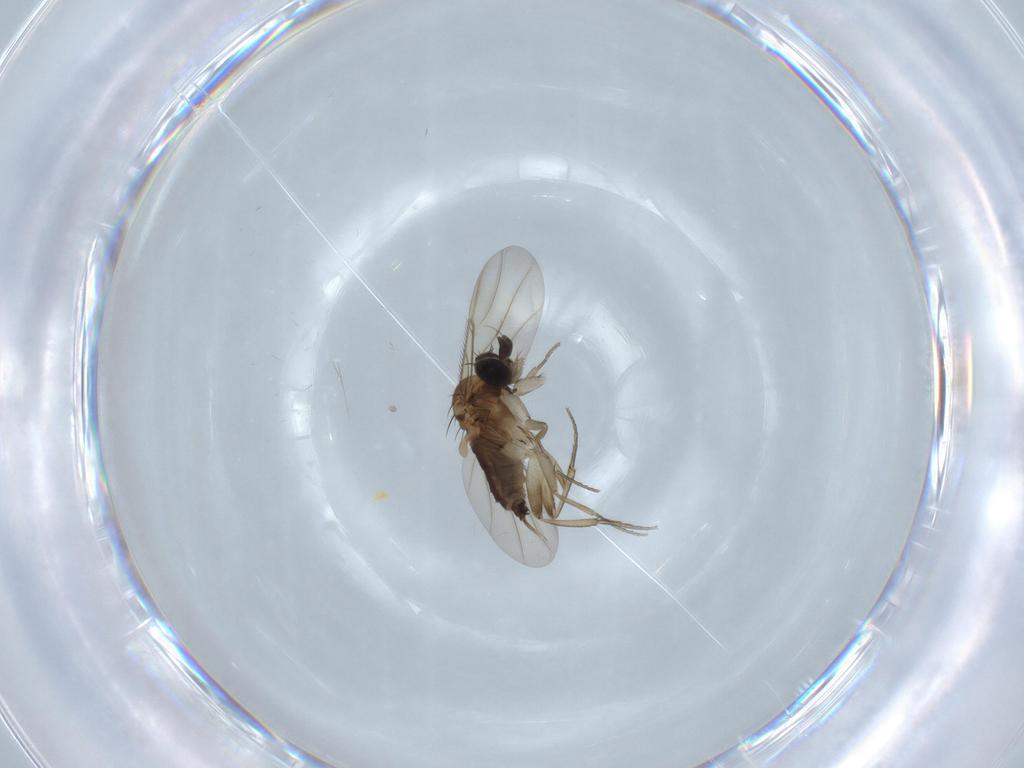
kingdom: Animalia
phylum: Arthropoda
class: Insecta
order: Diptera
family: Phoridae
